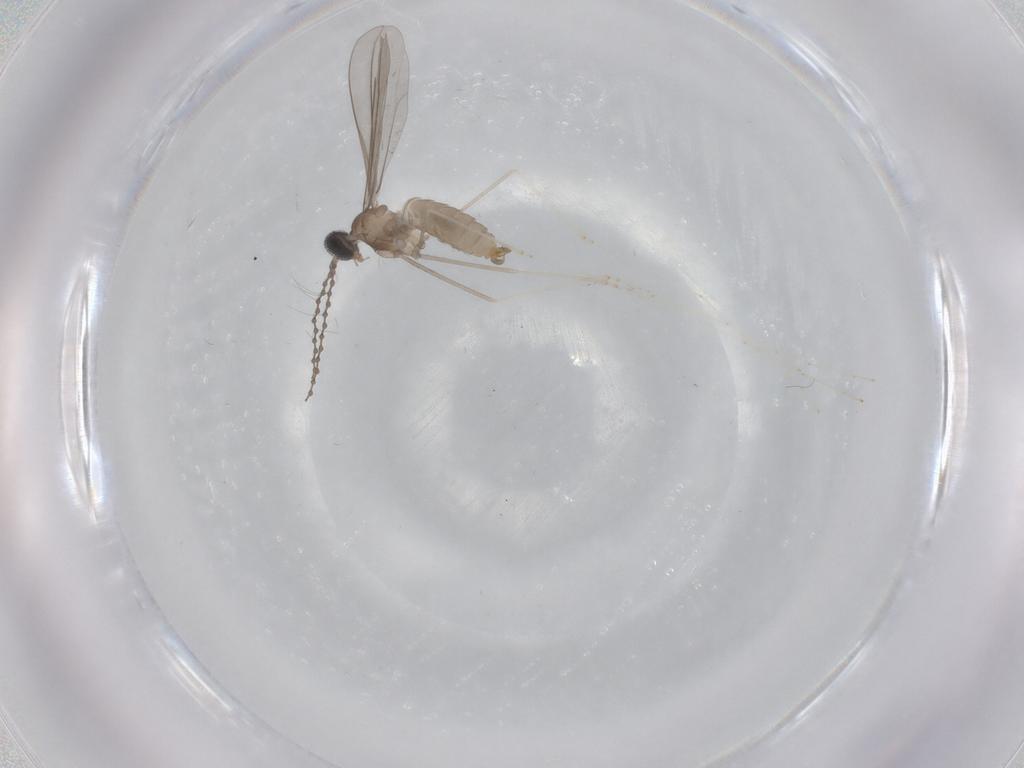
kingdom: Animalia
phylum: Arthropoda
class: Insecta
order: Diptera
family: Cecidomyiidae
